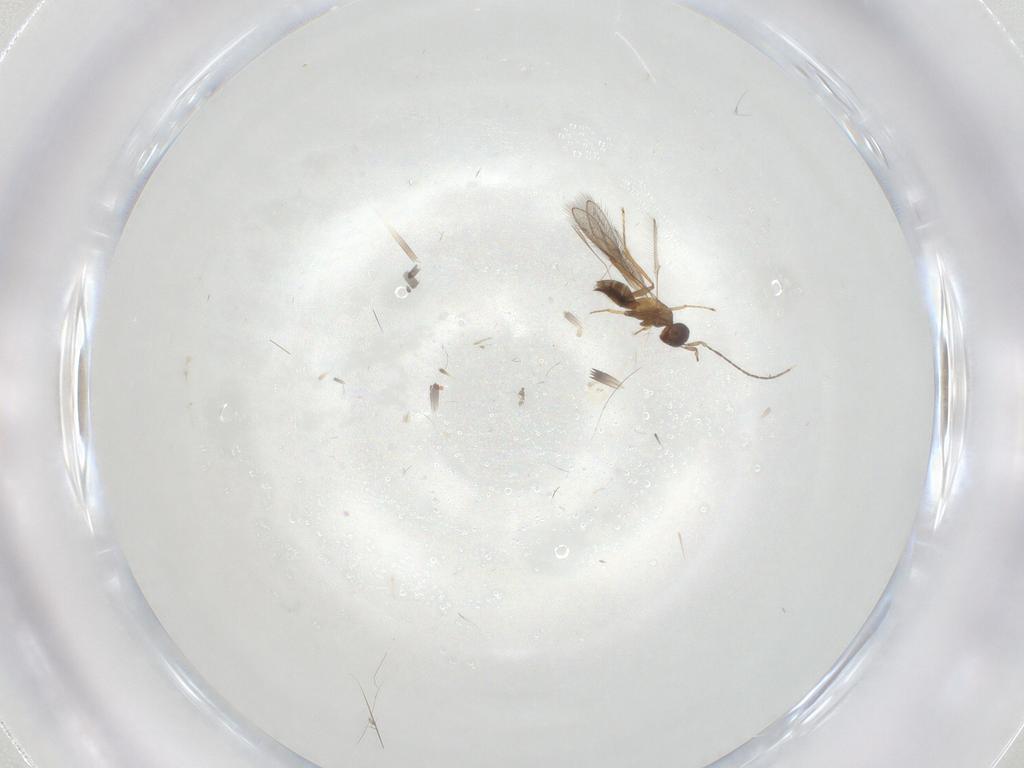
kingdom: Animalia
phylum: Arthropoda
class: Insecta
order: Hymenoptera
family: Mymaridae
